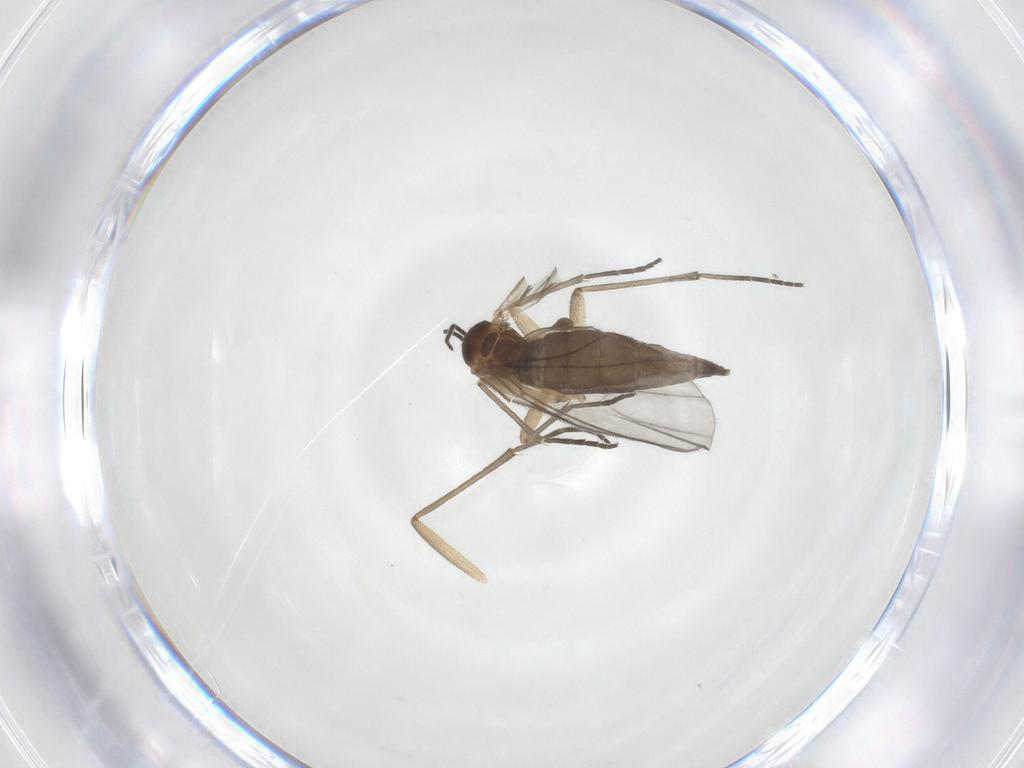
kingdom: Animalia
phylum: Arthropoda
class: Insecta
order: Diptera
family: Sciaridae
